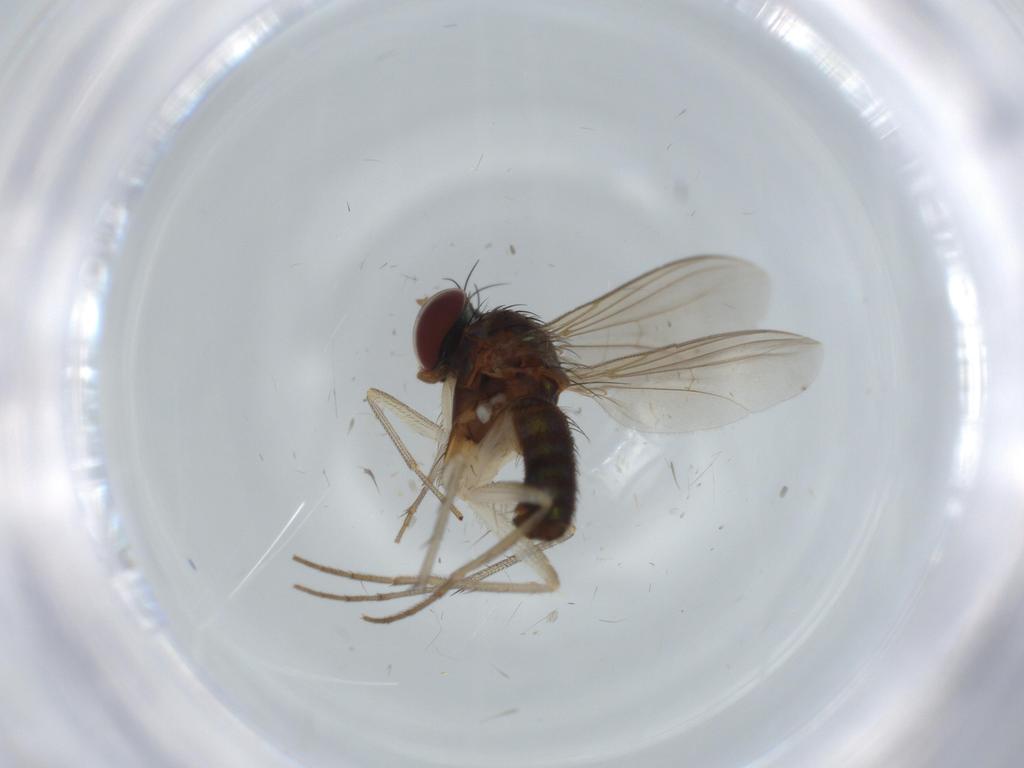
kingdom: Animalia
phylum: Arthropoda
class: Insecta
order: Diptera
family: Dolichopodidae
